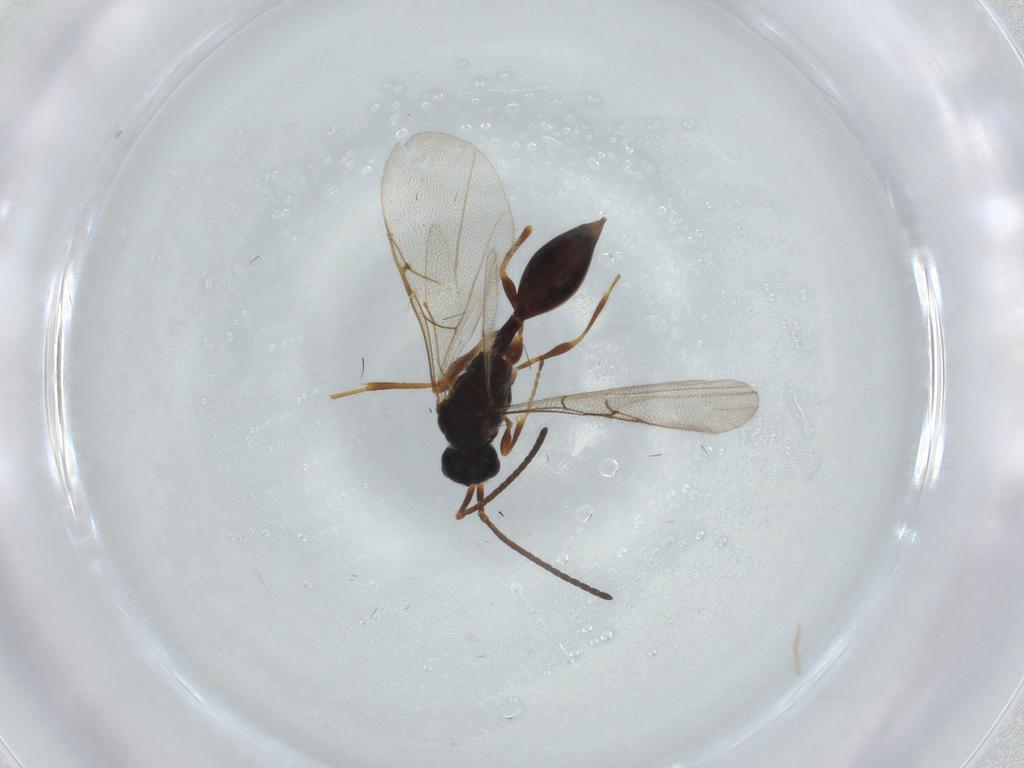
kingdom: Animalia
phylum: Arthropoda
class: Insecta
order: Hymenoptera
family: Diapriidae
